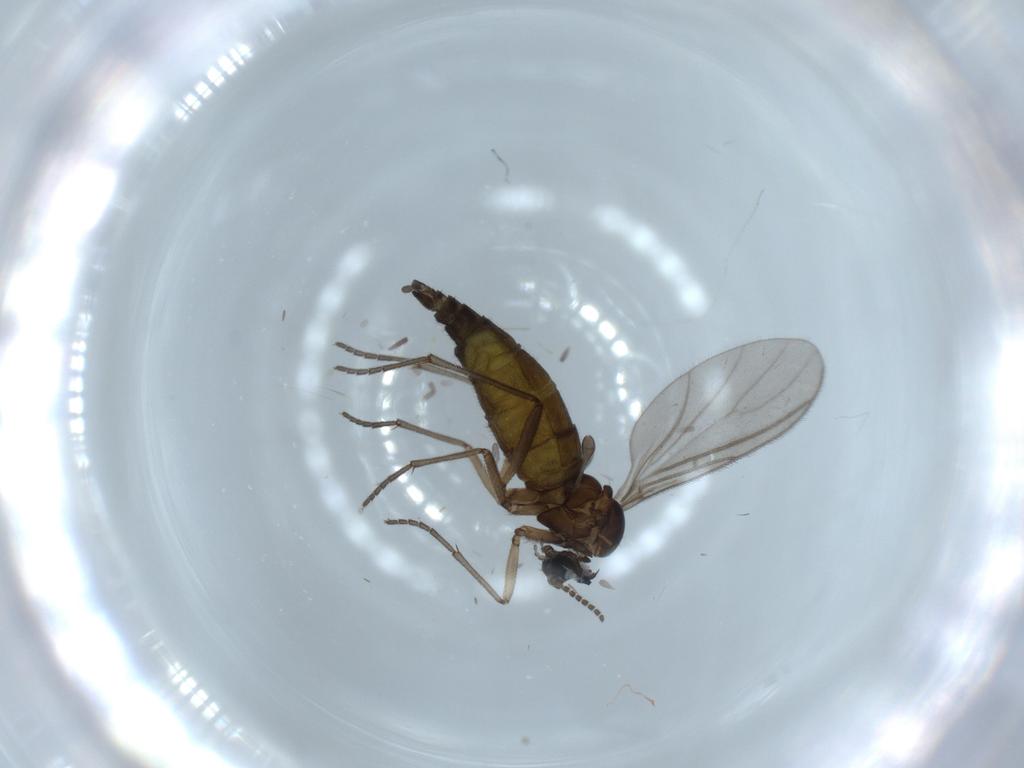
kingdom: Animalia
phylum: Arthropoda
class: Insecta
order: Diptera
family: Sciaridae
